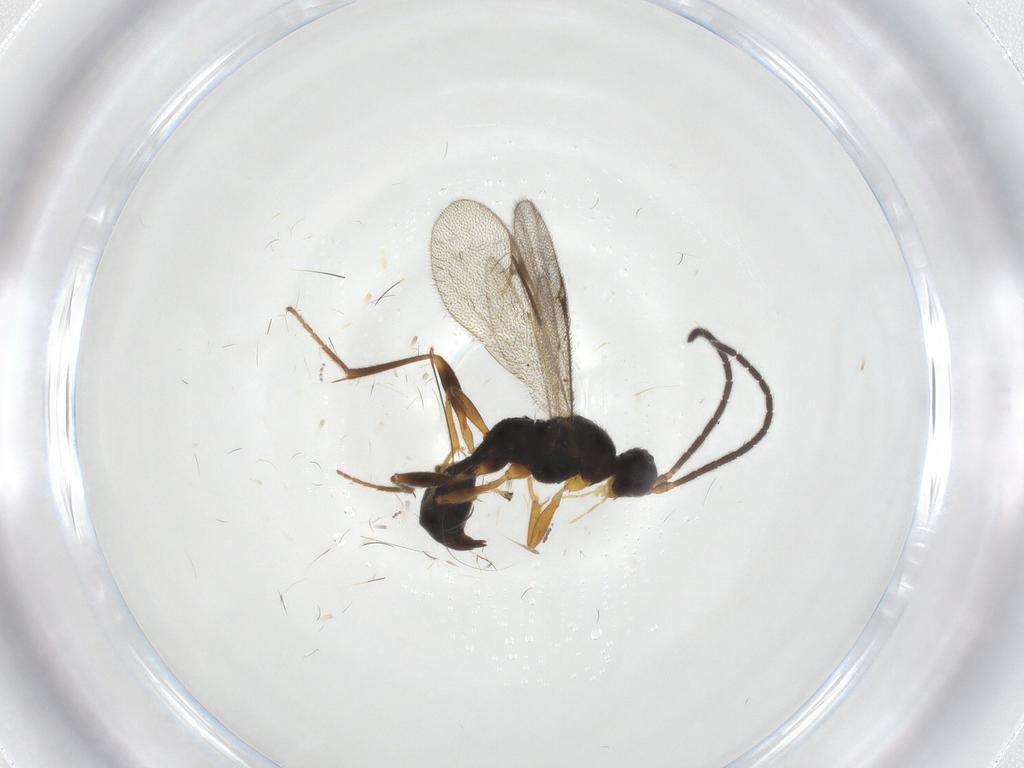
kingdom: Animalia
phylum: Arthropoda
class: Insecta
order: Hymenoptera
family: Proctotrupidae
